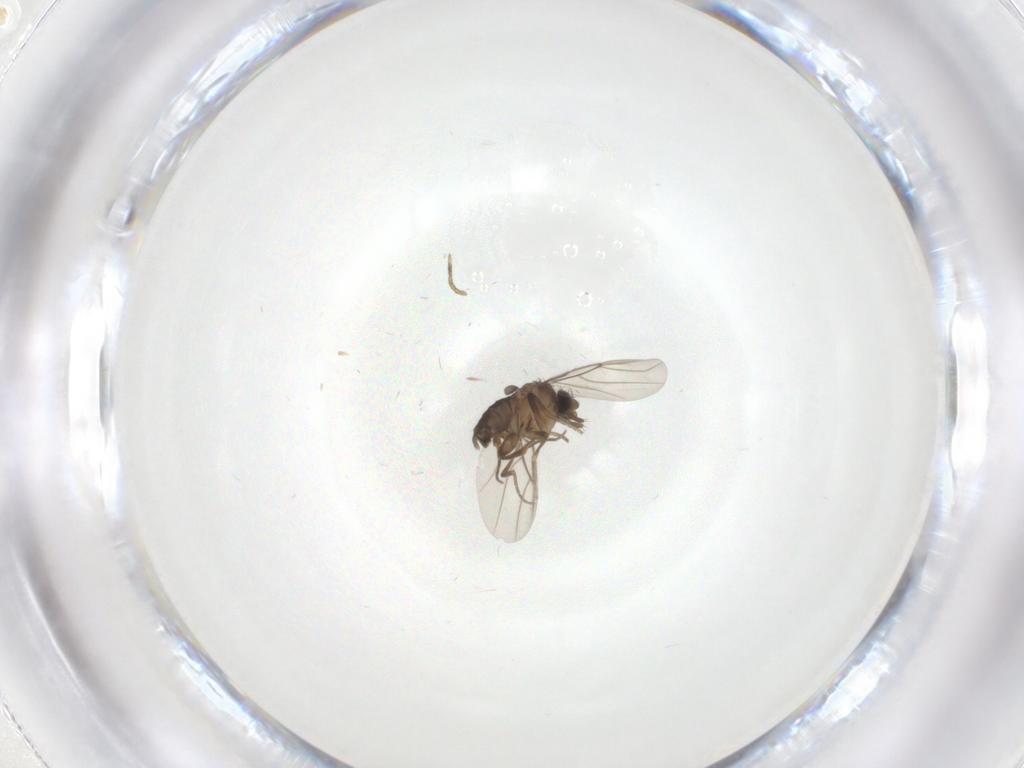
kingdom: Animalia
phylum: Arthropoda
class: Insecta
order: Diptera
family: Phoridae
